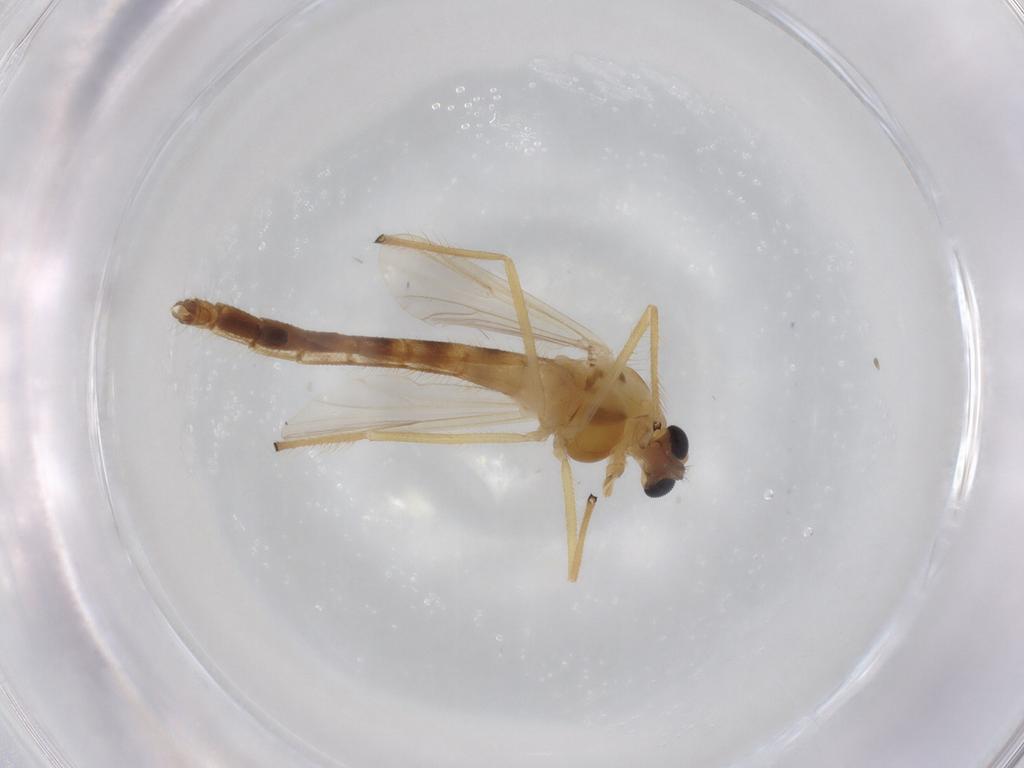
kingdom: Animalia
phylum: Arthropoda
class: Insecta
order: Diptera
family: Chironomidae
